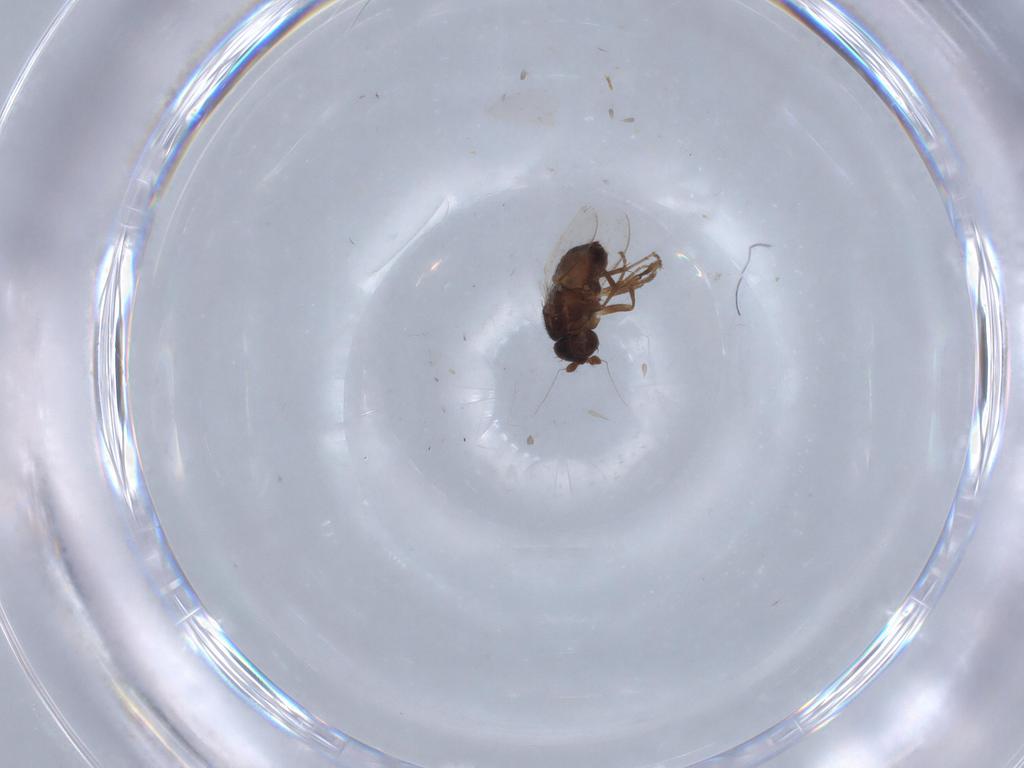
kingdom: Animalia
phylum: Arthropoda
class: Insecta
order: Diptera
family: Sphaeroceridae
